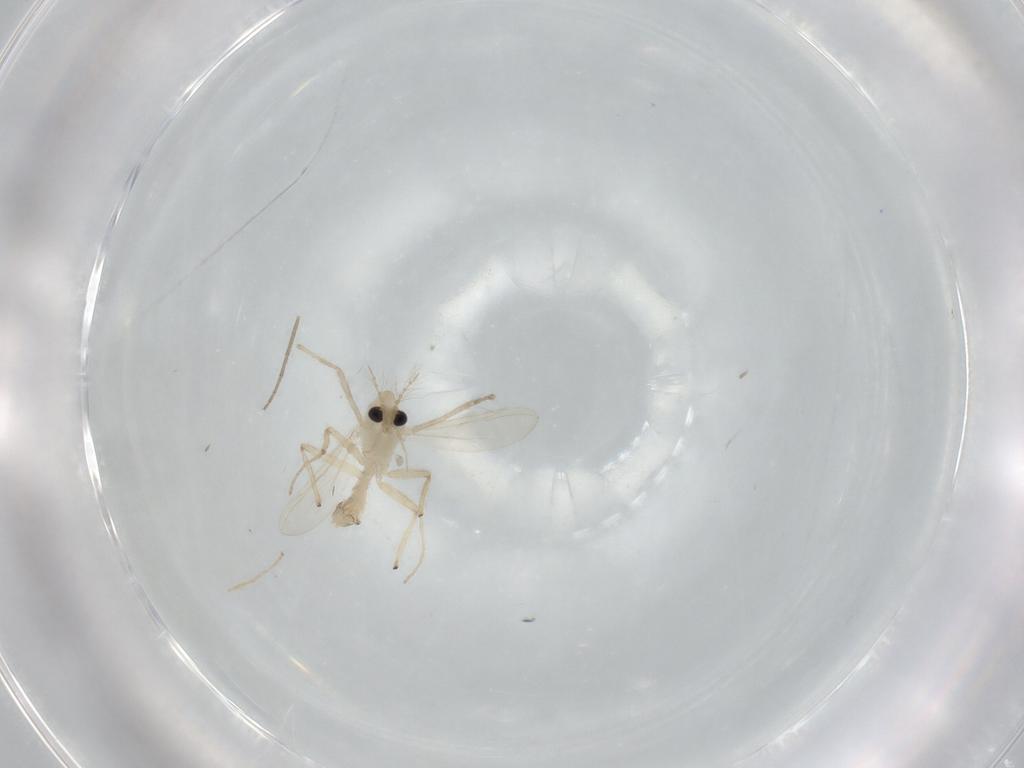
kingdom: Animalia
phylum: Arthropoda
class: Insecta
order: Diptera
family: Chironomidae
